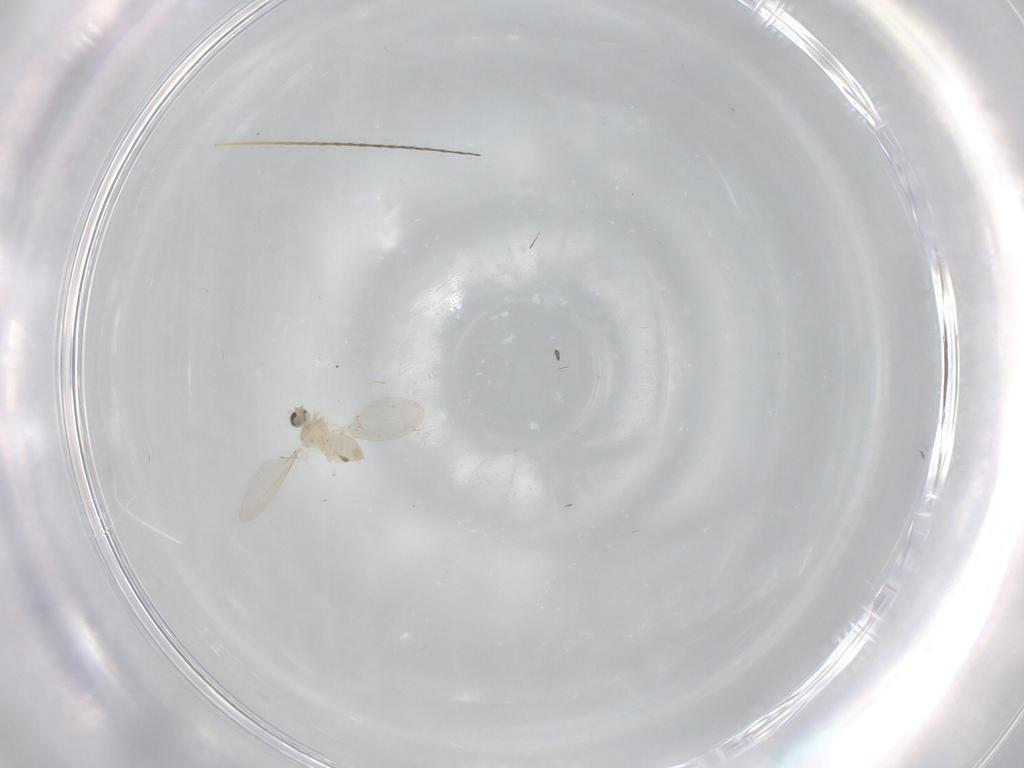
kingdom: Animalia
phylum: Arthropoda
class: Insecta
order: Diptera
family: Cecidomyiidae
